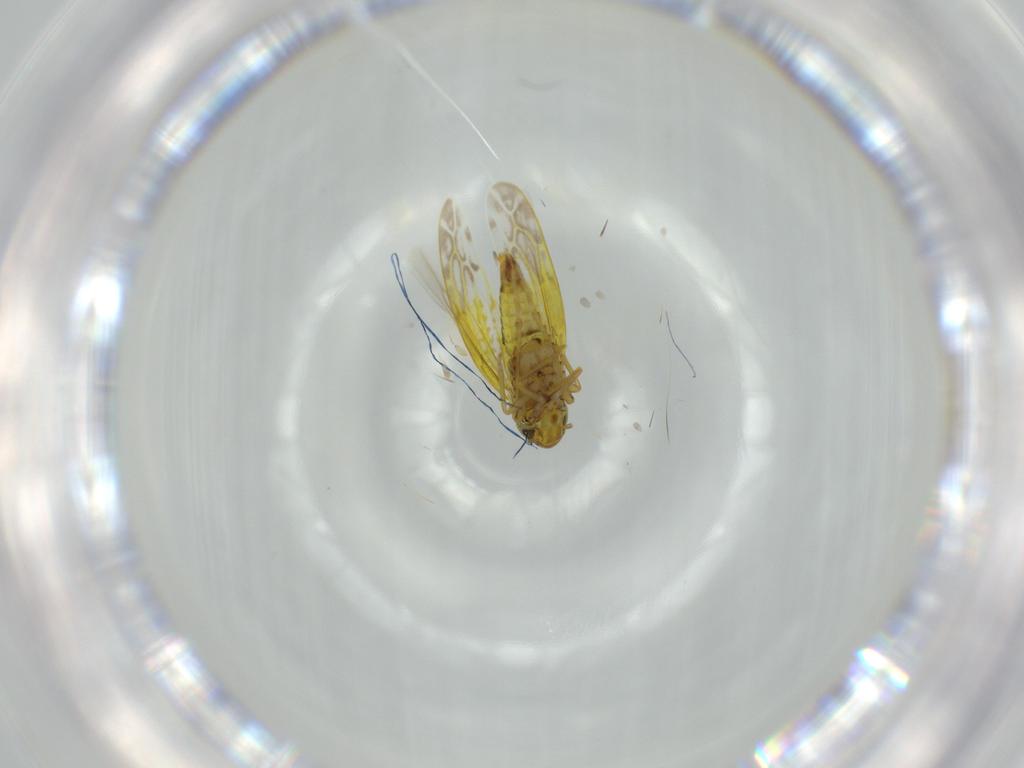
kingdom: Animalia
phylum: Arthropoda
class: Insecta
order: Hemiptera
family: Cicadellidae
